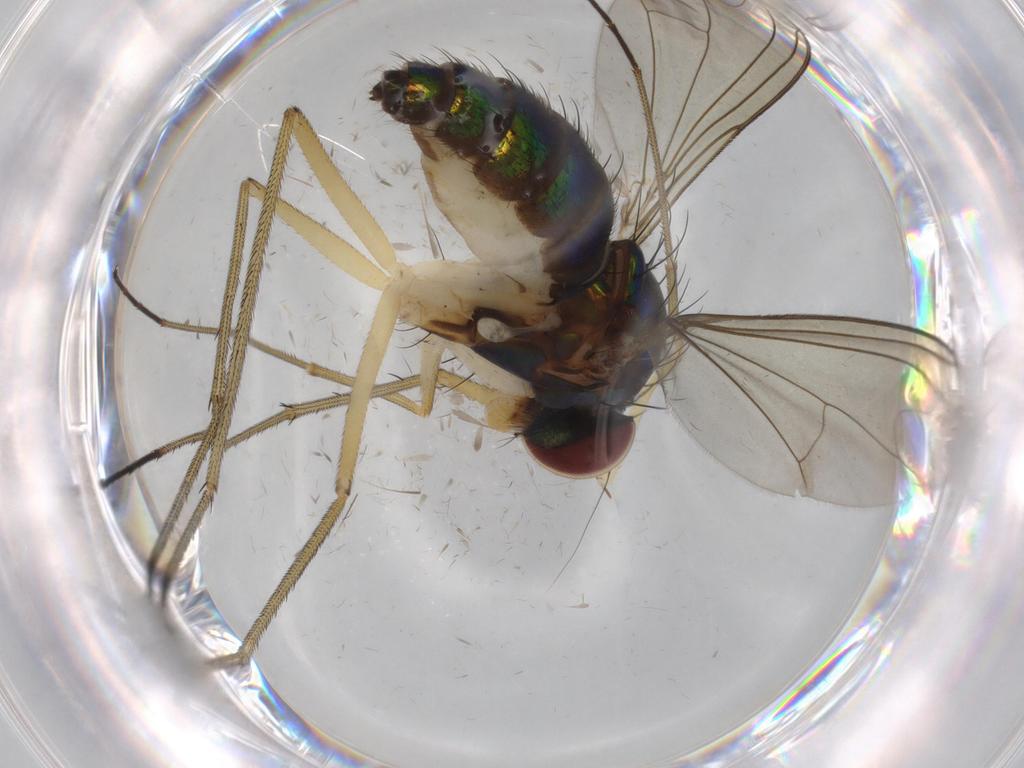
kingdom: Animalia
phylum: Arthropoda
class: Insecta
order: Diptera
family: Dolichopodidae
